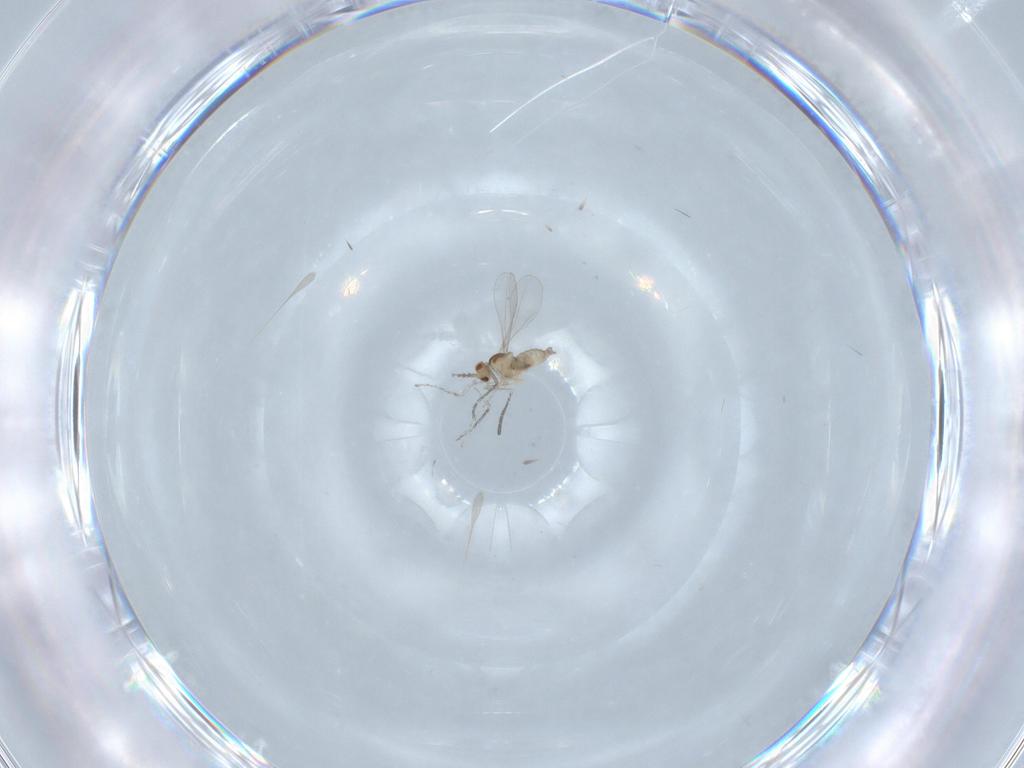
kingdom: Animalia
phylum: Arthropoda
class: Insecta
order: Diptera
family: Cecidomyiidae
